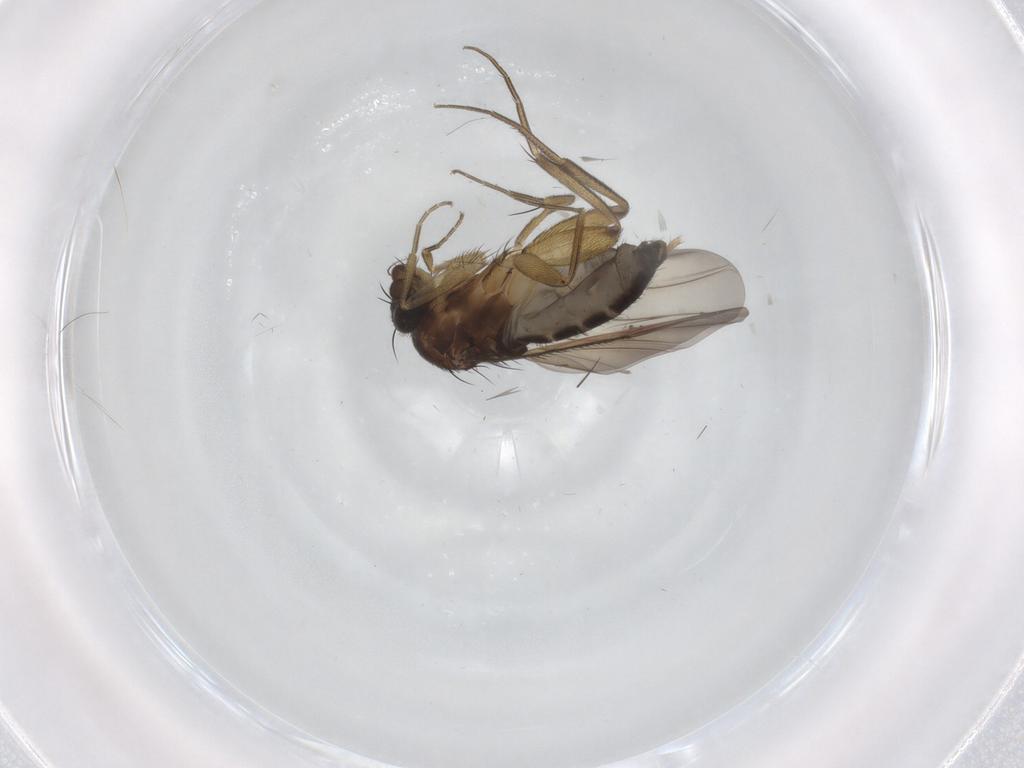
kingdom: Animalia
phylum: Arthropoda
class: Insecta
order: Diptera
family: Phoridae
